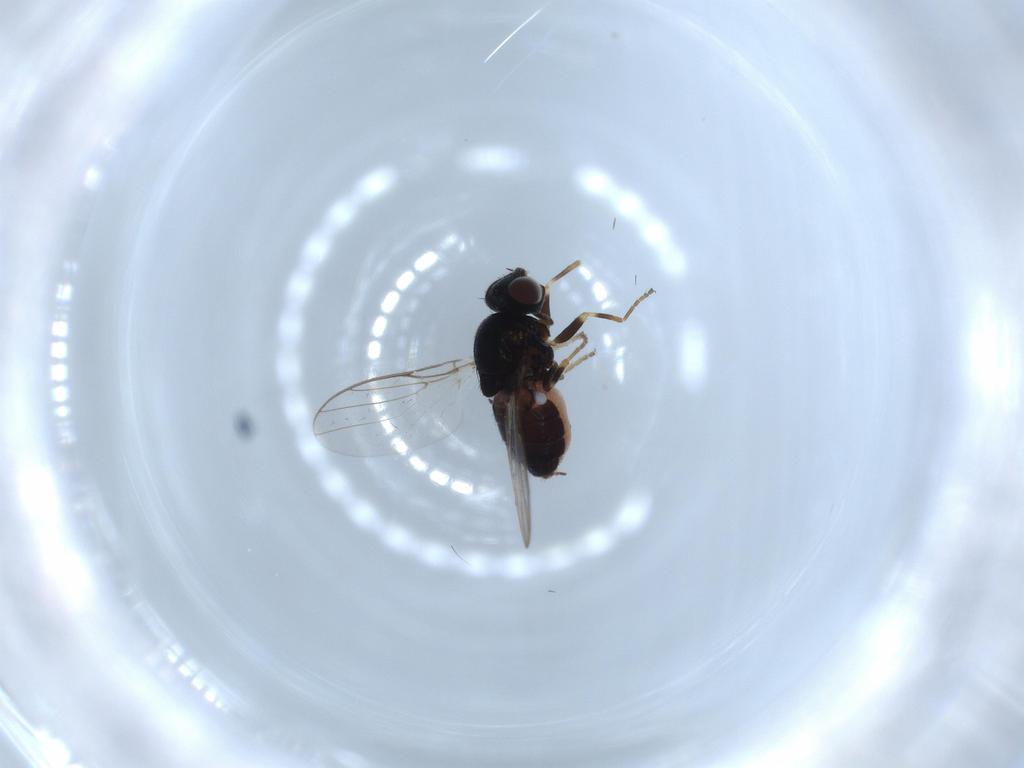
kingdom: Animalia
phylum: Arthropoda
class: Insecta
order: Diptera
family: Chloropidae
